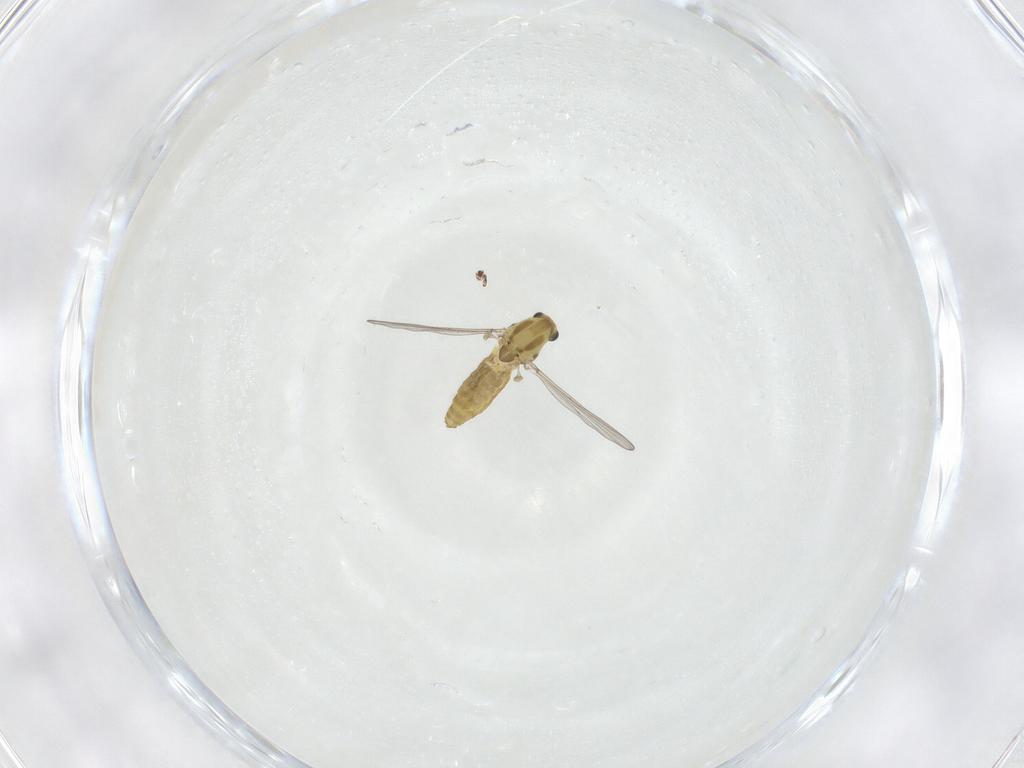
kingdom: Animalia
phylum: Arthropoda
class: Insecta
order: Diptera
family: Chironomidae
